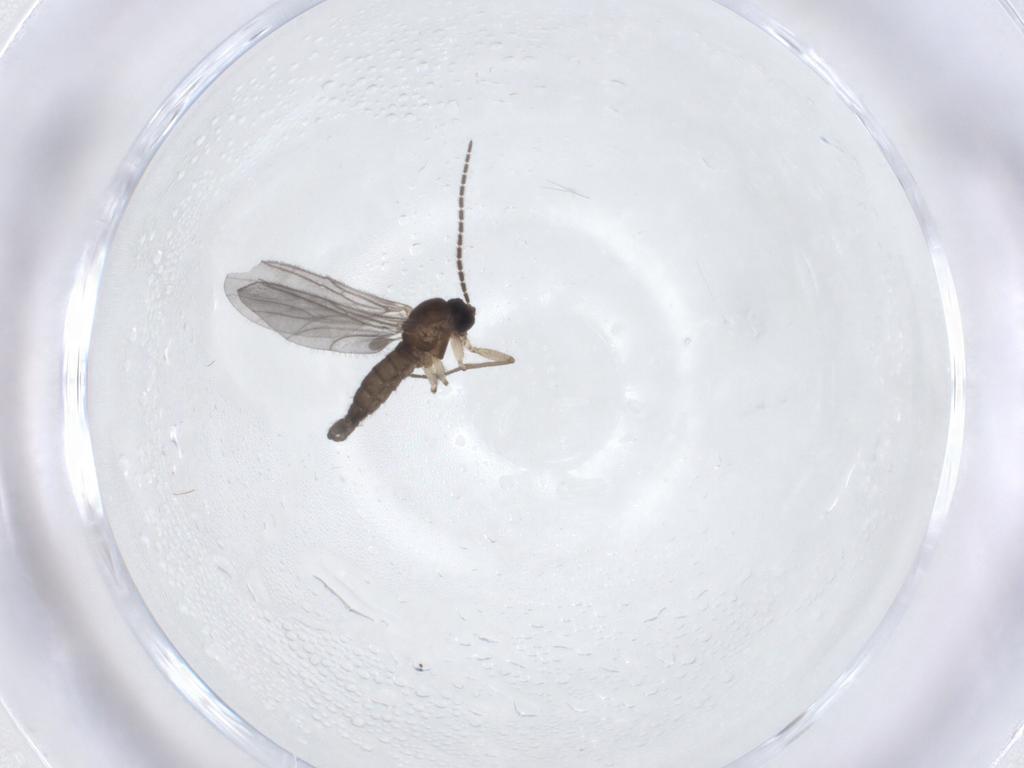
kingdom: Animalia
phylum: Arthropoda
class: Insecta
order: Diptera
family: Sciaridae
